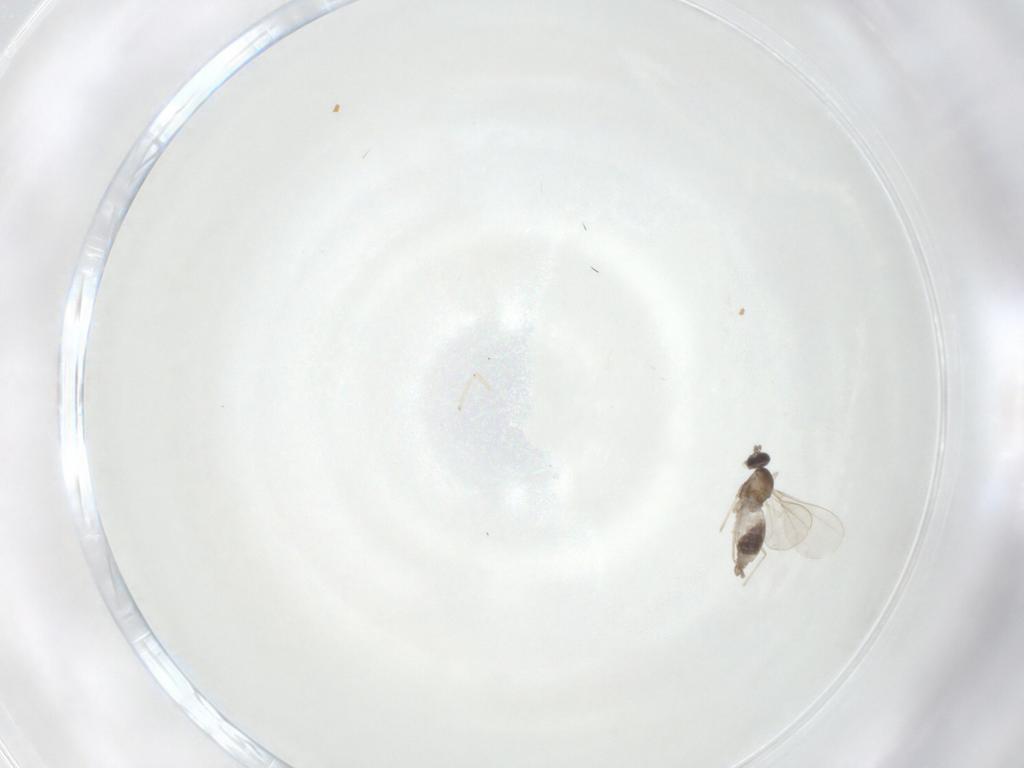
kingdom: Animalia
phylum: Arthropoda
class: Insecta
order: Diptera
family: Cecidomyiidae
